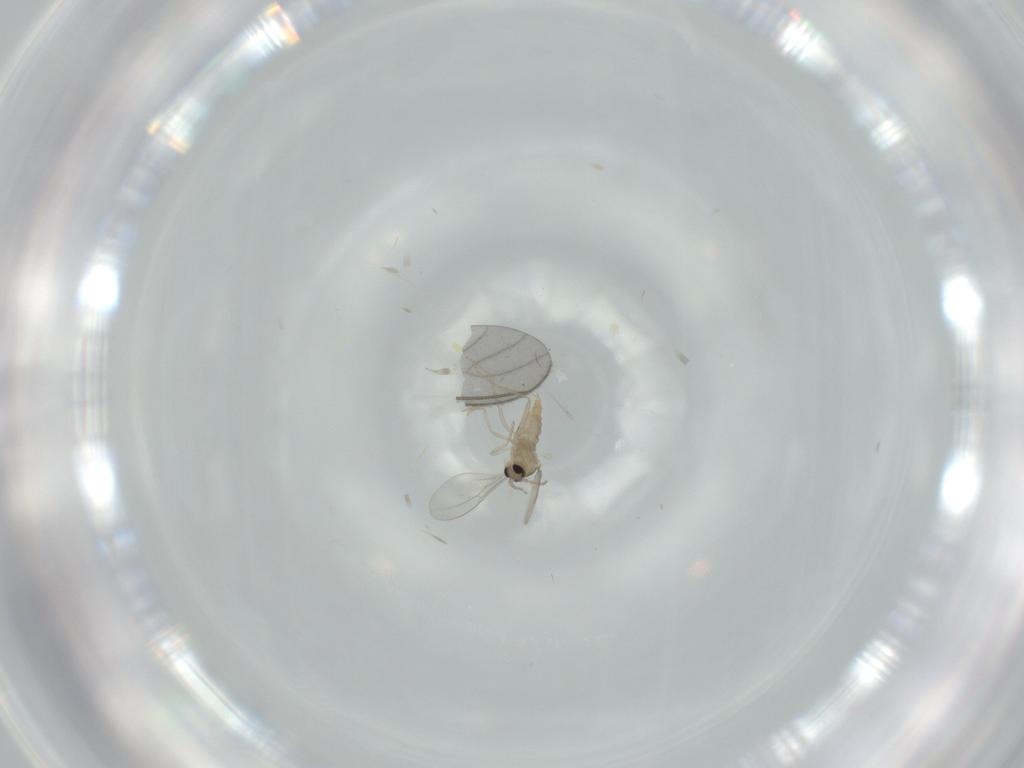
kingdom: Animalia
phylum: Arthropoda
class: Insecta
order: Diptera
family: Cecidomyiidae
